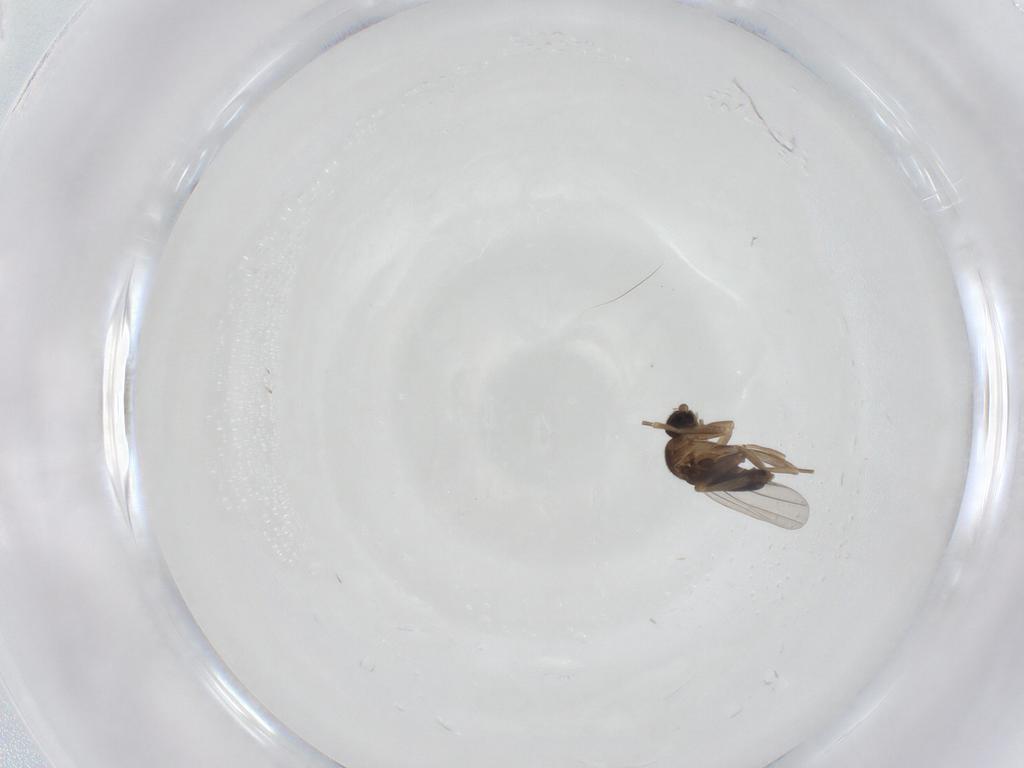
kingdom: Animalia
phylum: Arthropoda
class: Insecta
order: Diptera
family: Phoridae
